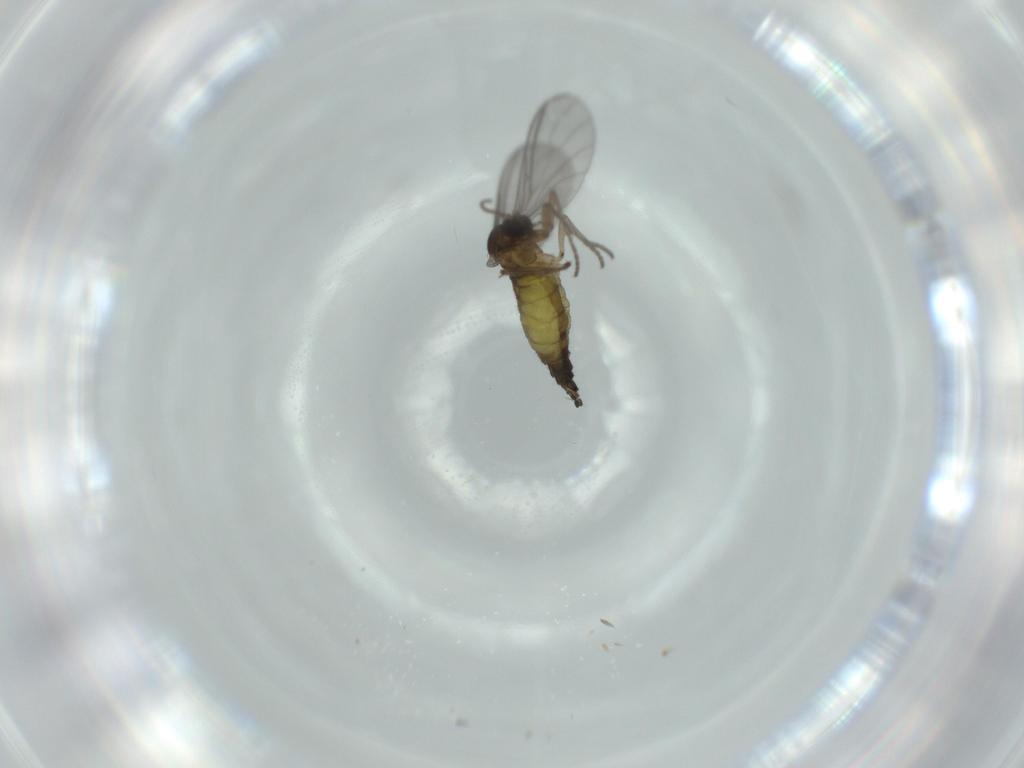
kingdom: Animalia
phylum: Arthropoda
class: Insecta
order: Diptera
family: Sciaridae
